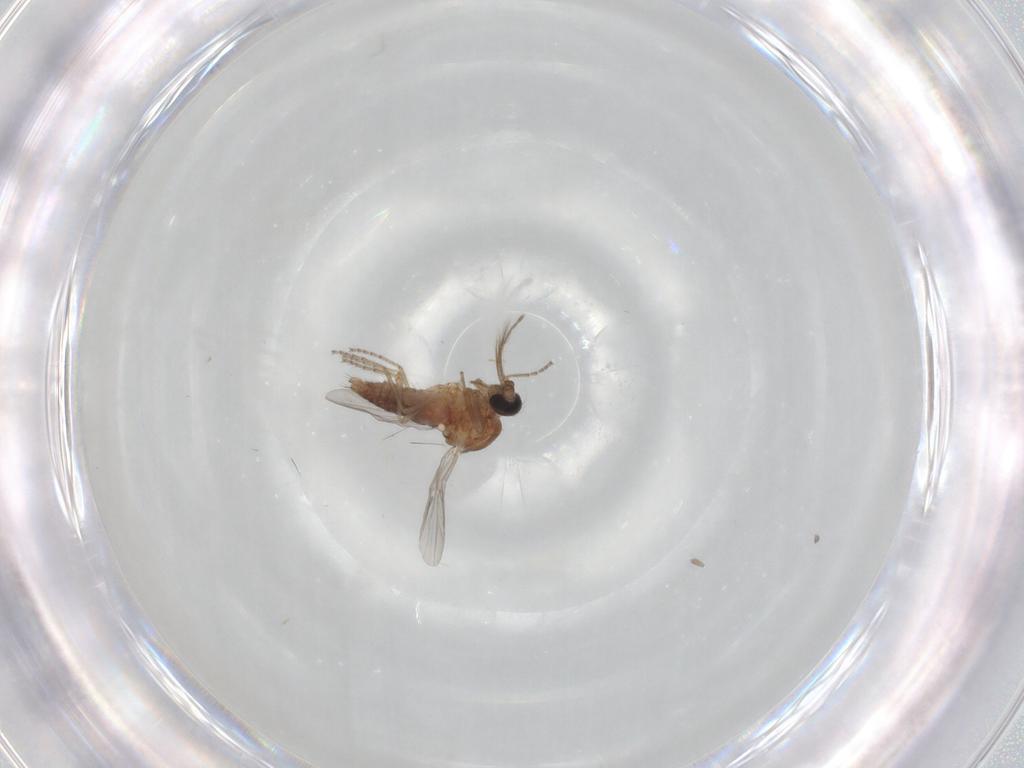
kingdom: Animalia
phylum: Arthropoda
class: Insecta
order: Diptera
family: Ceratopogonidae
